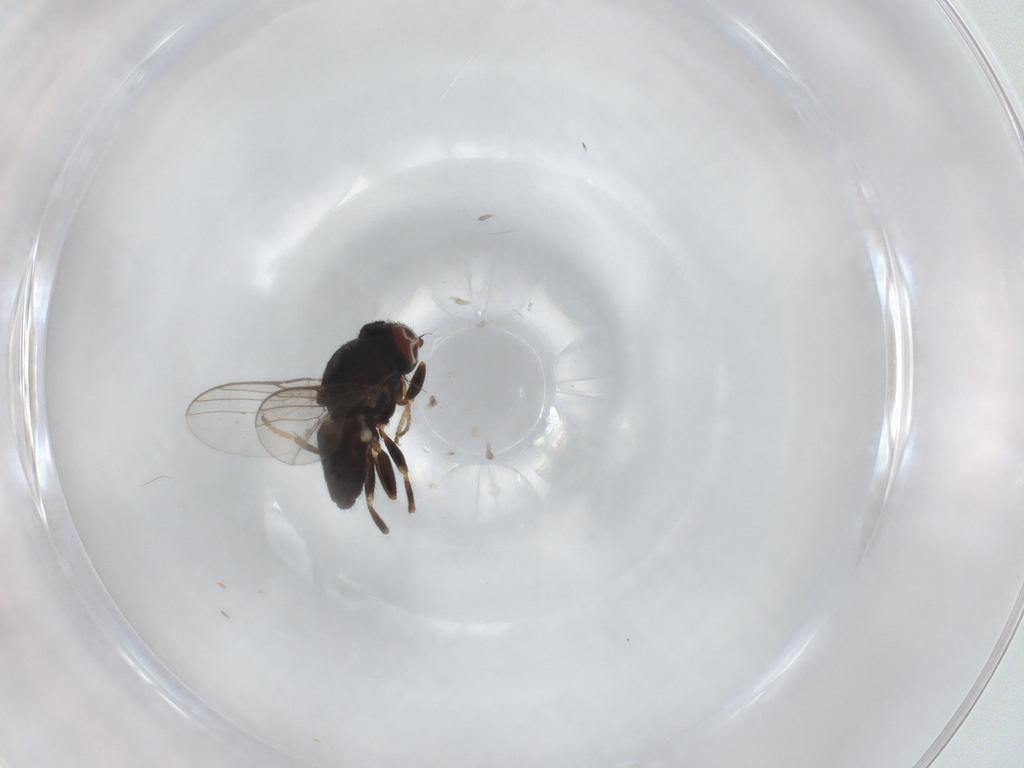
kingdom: Animalia
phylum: Arthropoda
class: Insecta
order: Diptera
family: Chloropidae
